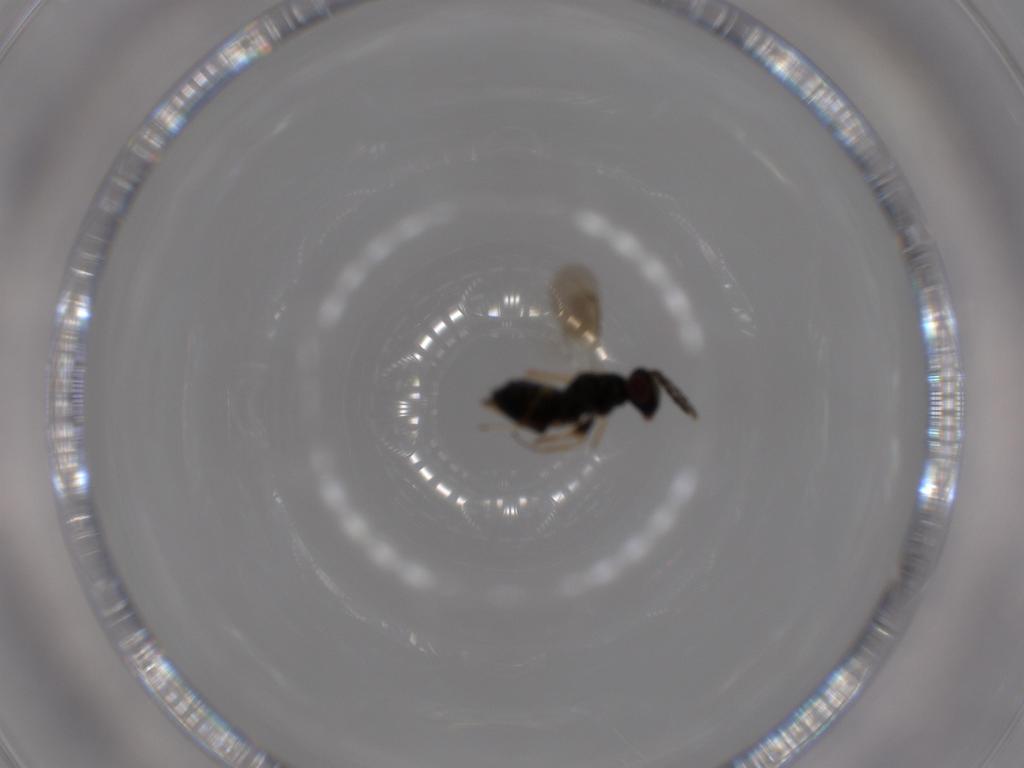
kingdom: Animalia
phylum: Arthropoda
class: Insecta
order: Hymenoptera
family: Eulophidae
